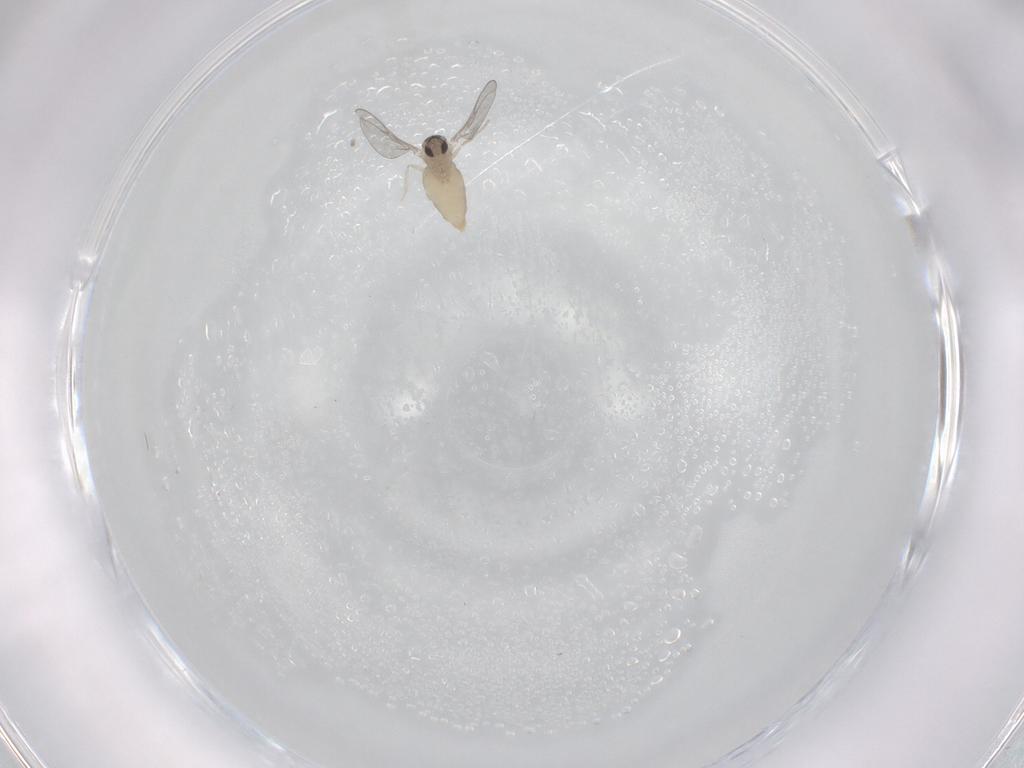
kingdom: Animalia
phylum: Arthropoda
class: Insecta
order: Diptera
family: Cecidomyiidae
